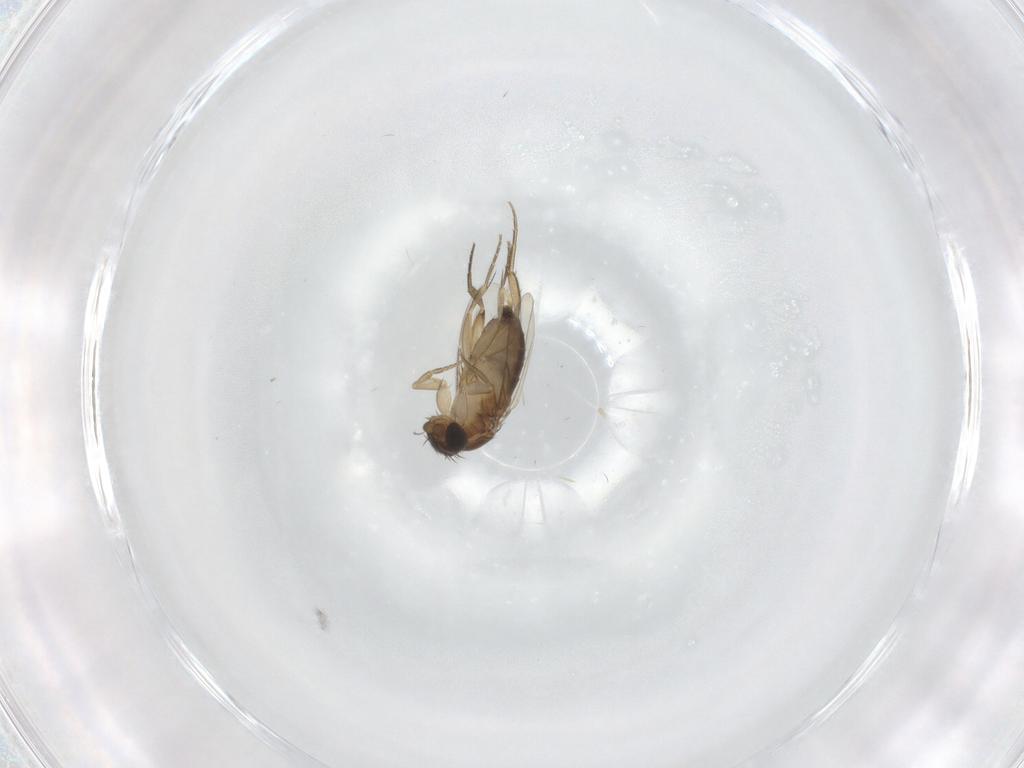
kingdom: Animalia
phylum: Arthropoda
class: Insecta
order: Diptera
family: Phoridae
